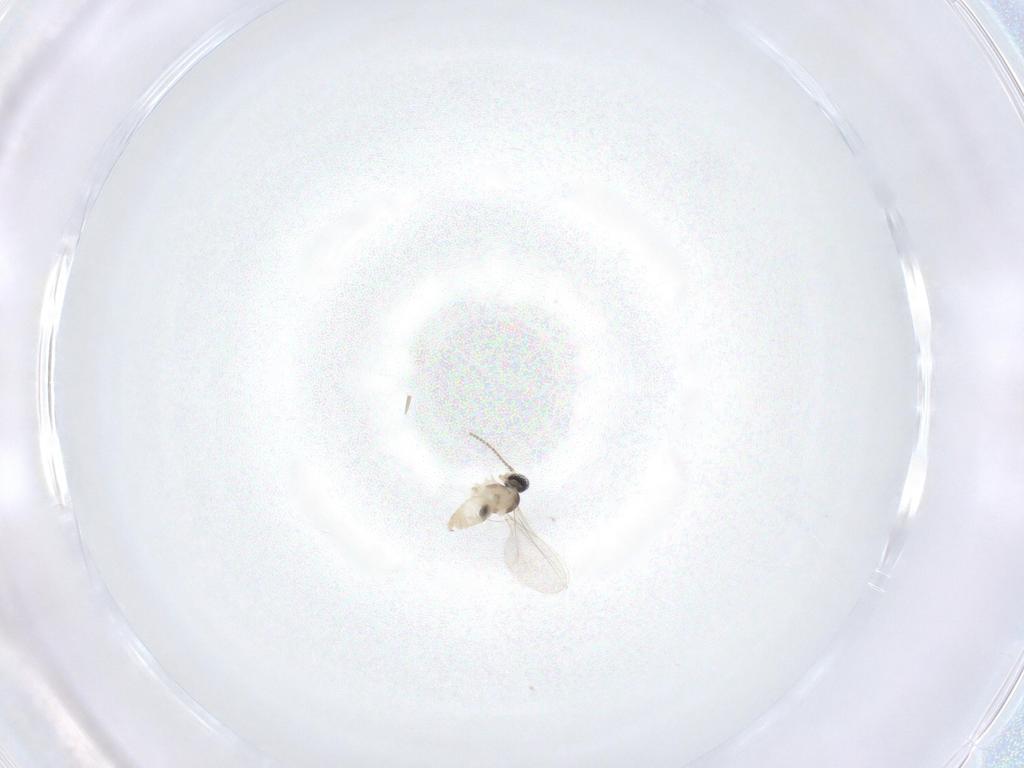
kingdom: Animalia
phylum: Arthropoda
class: Insecta
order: Diptera
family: Cecidomyiidae
